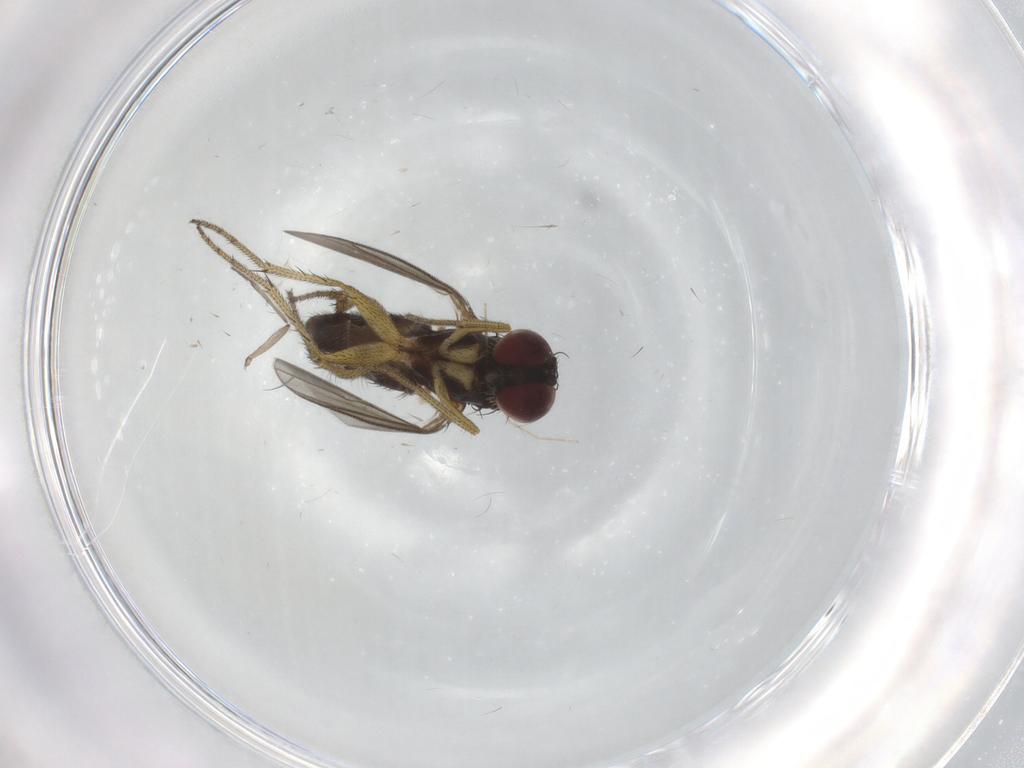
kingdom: Animalia
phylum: Arthropoda
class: Insecta
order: Diptera
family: Chironomidae
